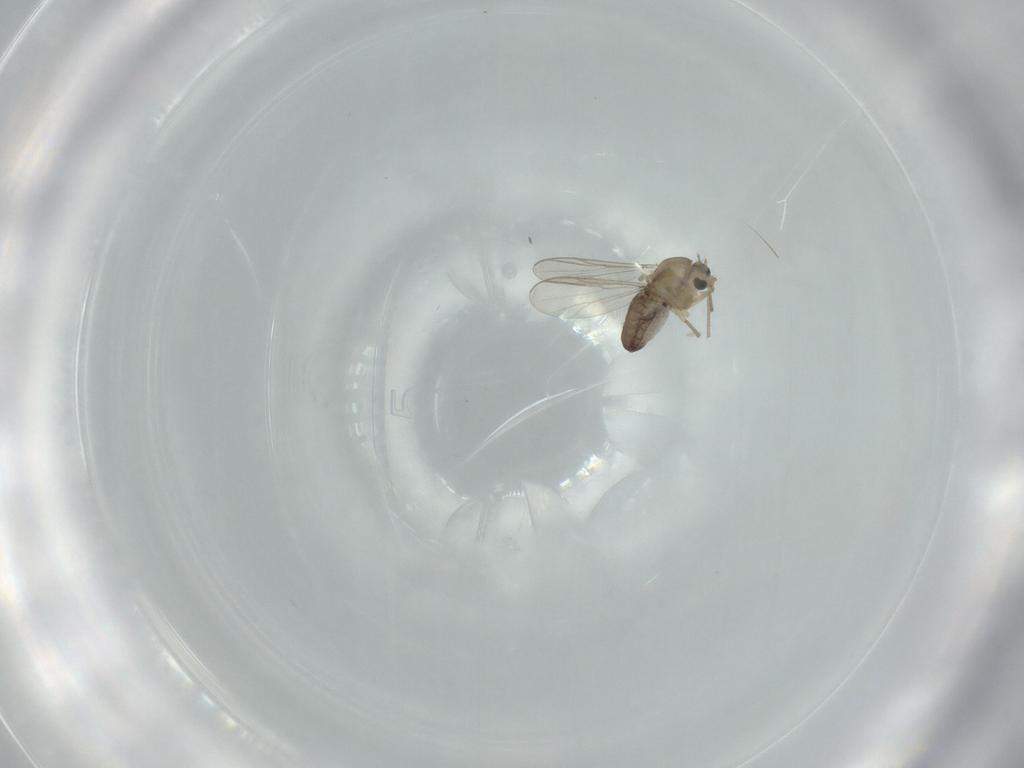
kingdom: Animalia
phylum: Arthropoda
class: Insecta
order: Diptera
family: Chironomidae
